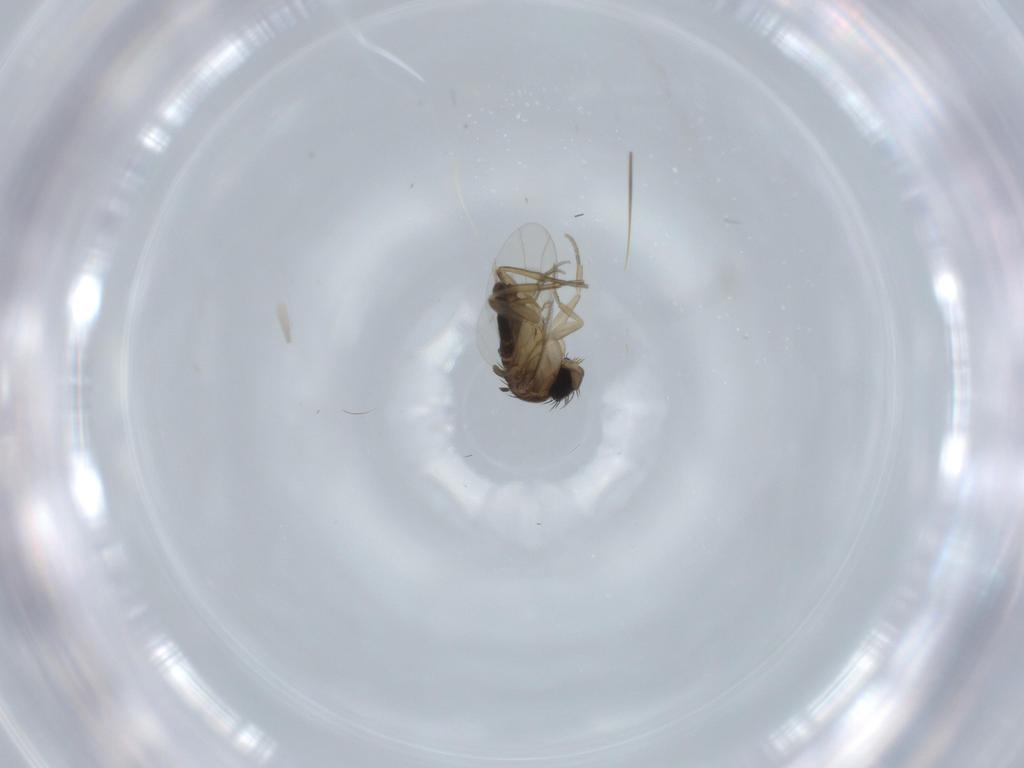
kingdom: Animalia
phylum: Arthropoda
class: Insecta
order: Diptera
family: Phoridae
